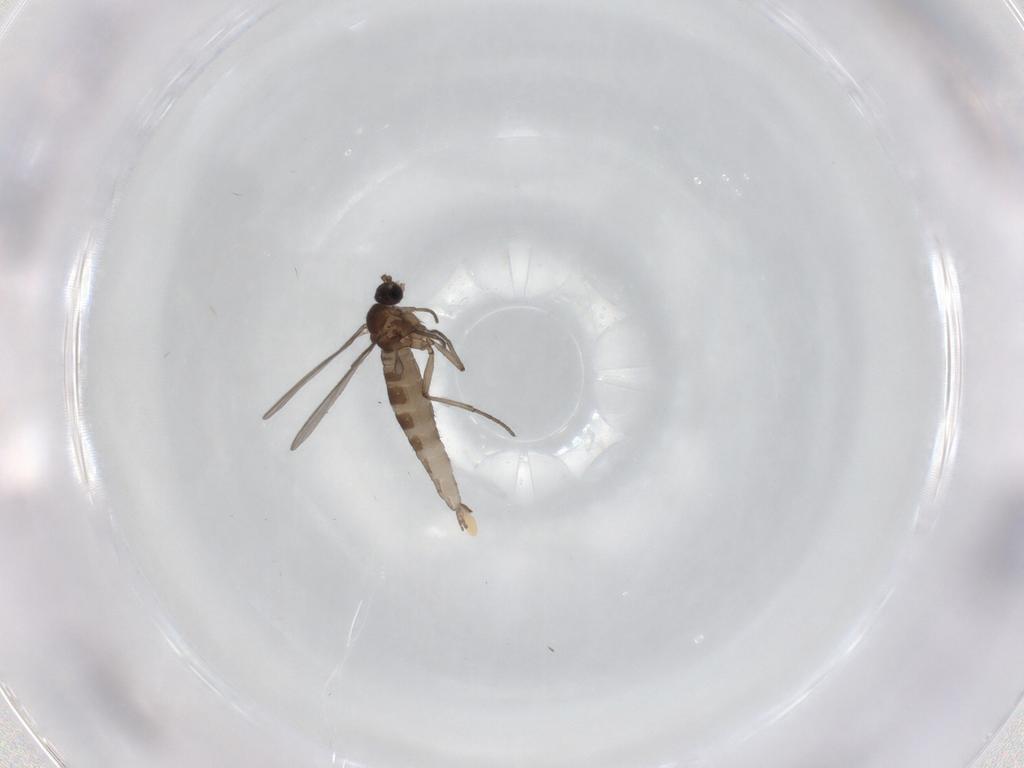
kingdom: Animalia
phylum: Arthropoda
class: Insecta
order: Diptera
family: Sciaridae
